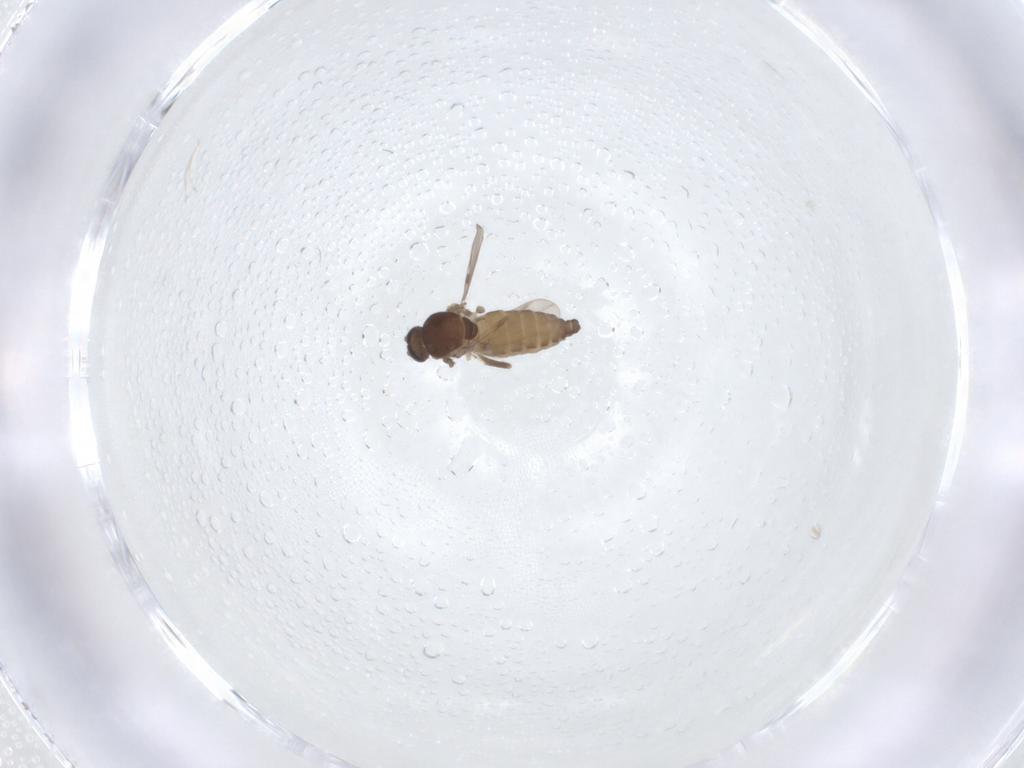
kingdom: Animalia
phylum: Arthropoda
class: Insecta
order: Diptera
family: Ceratopogonidae
